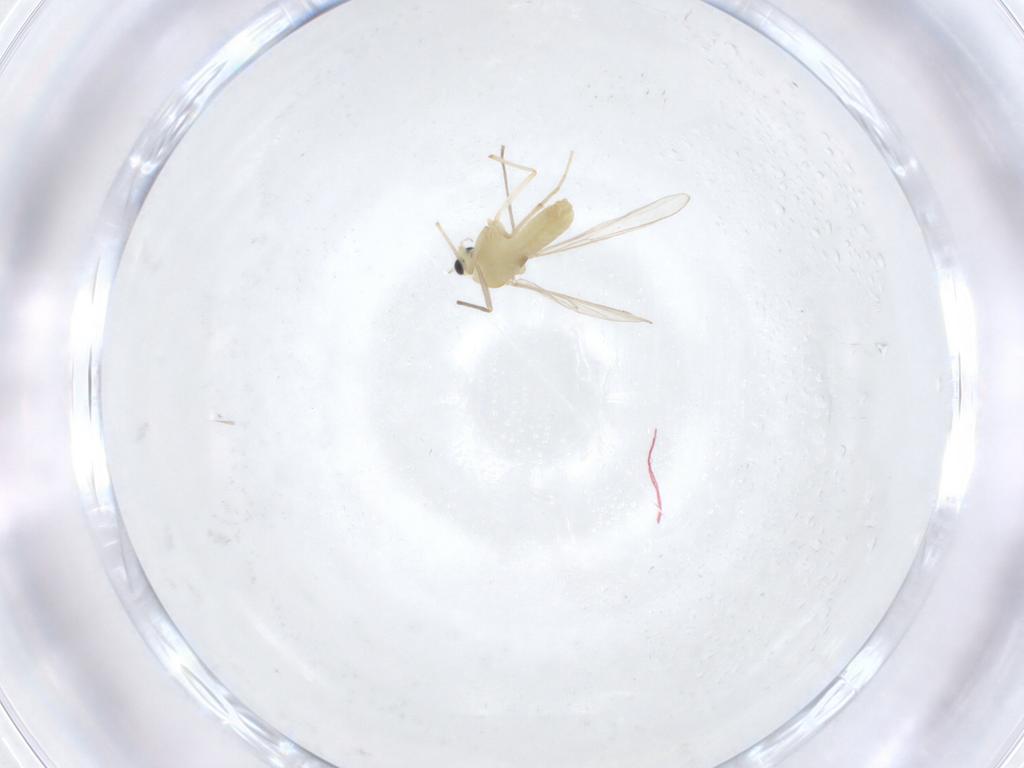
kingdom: Animalia
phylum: Arthropoda
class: Insecta
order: Diptera
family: Chironomidae
